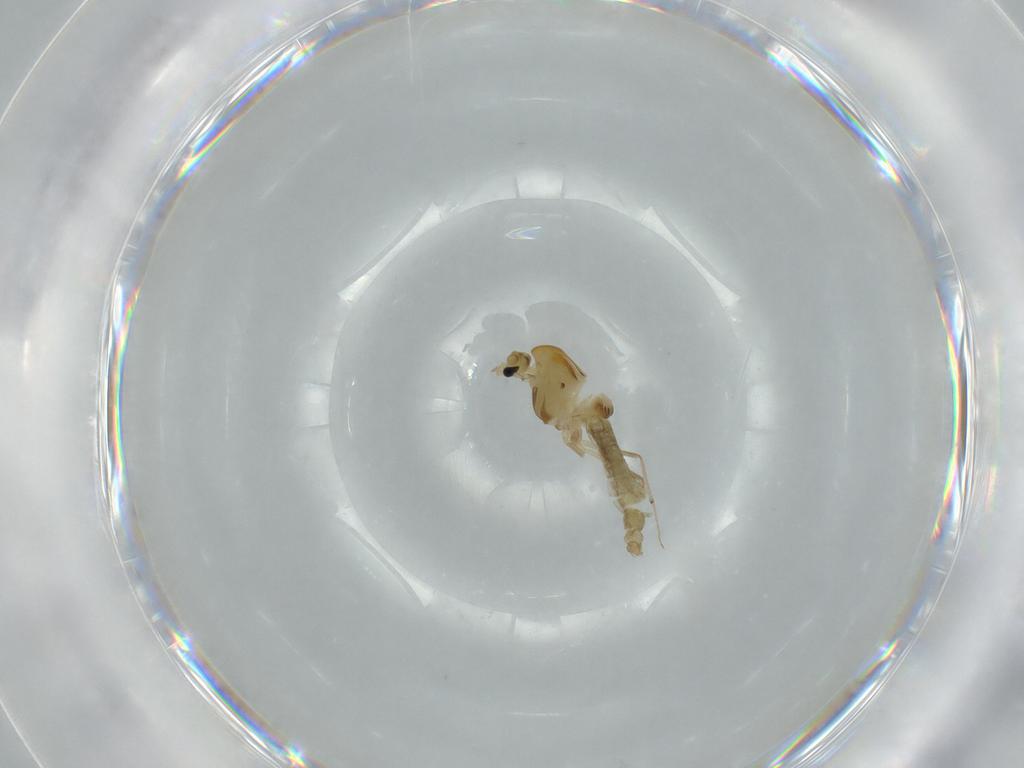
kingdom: Animalia
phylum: Arthropoda
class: Insecta
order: Diptera
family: Chironomidae
